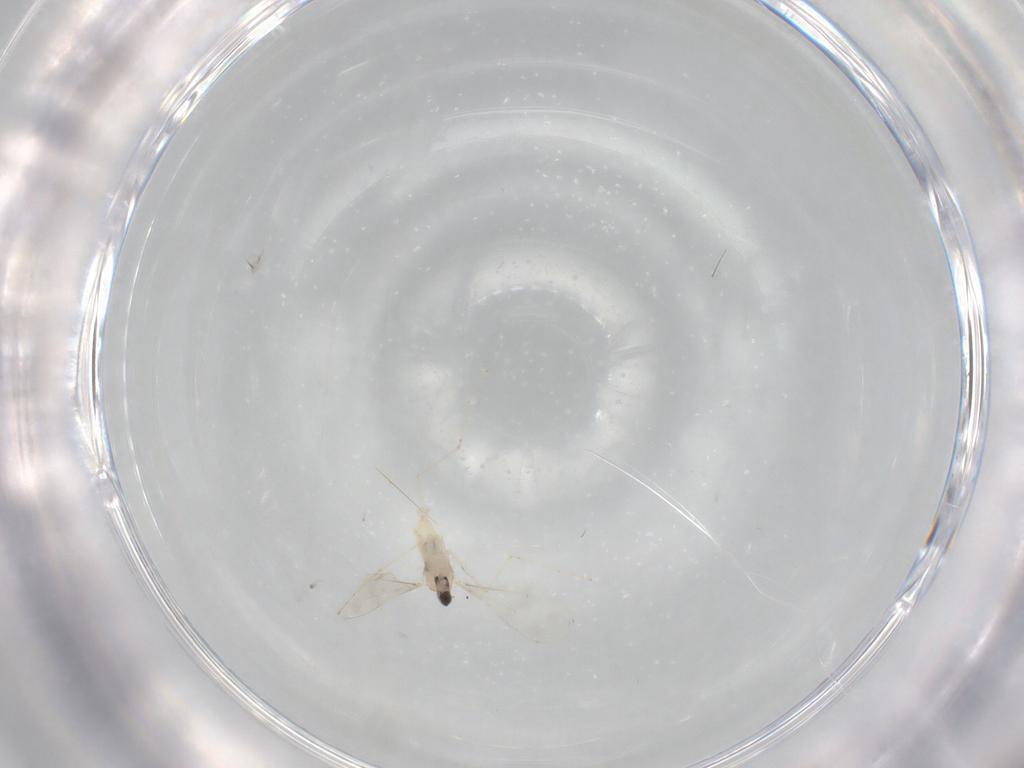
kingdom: Animalia
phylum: Arthropoda
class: Insecta
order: Diptera
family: Cecidomyiidae
